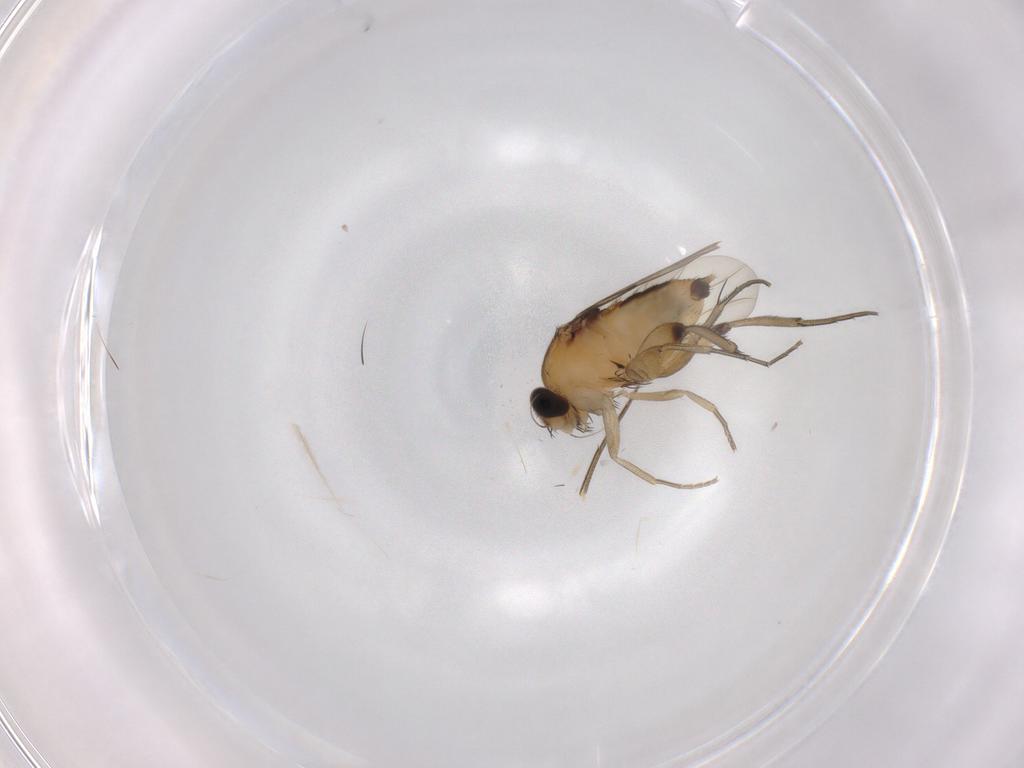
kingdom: Animalia
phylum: Arthropoda
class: Insecta
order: Diptera
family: Phoridae
